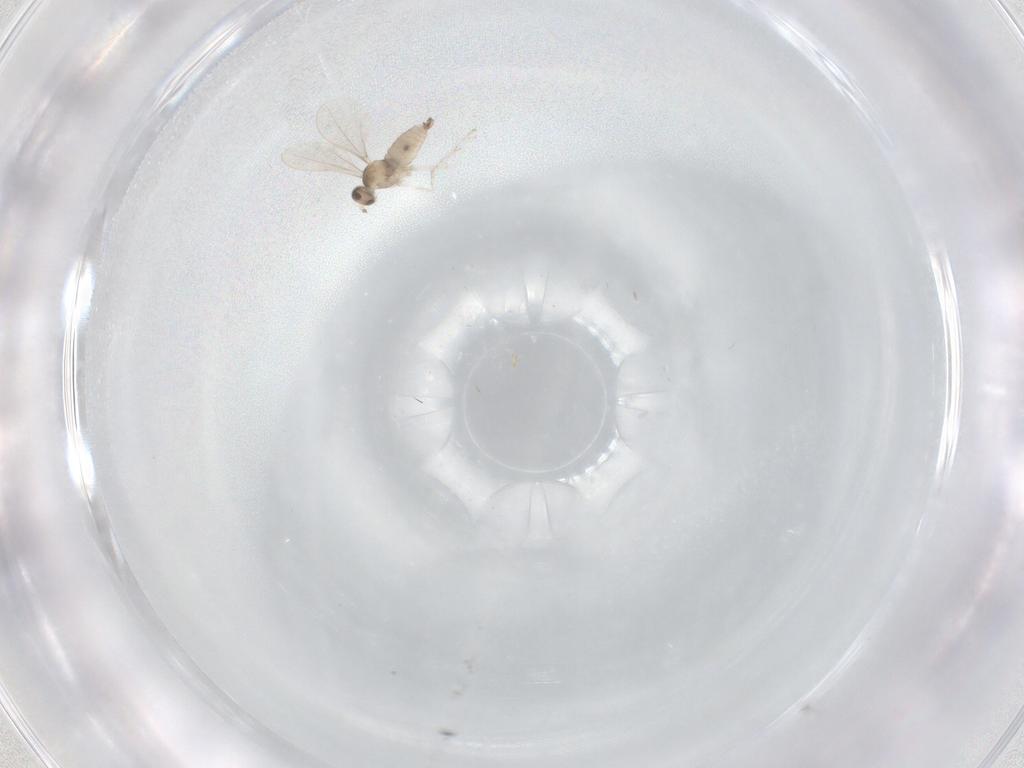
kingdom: Animalia
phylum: Arthropoda
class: Insecta
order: Diptera
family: Cecidomyiidae
